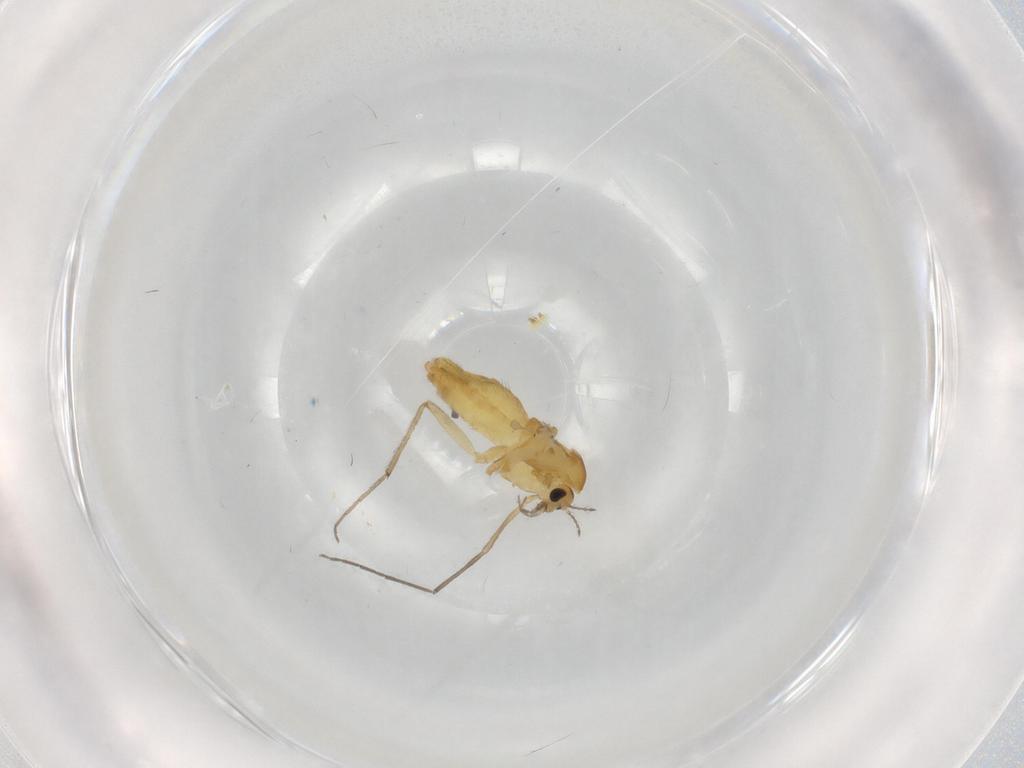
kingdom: Animalia
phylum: Arthropoda
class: Insecta
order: Diptera
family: Chironomidae
